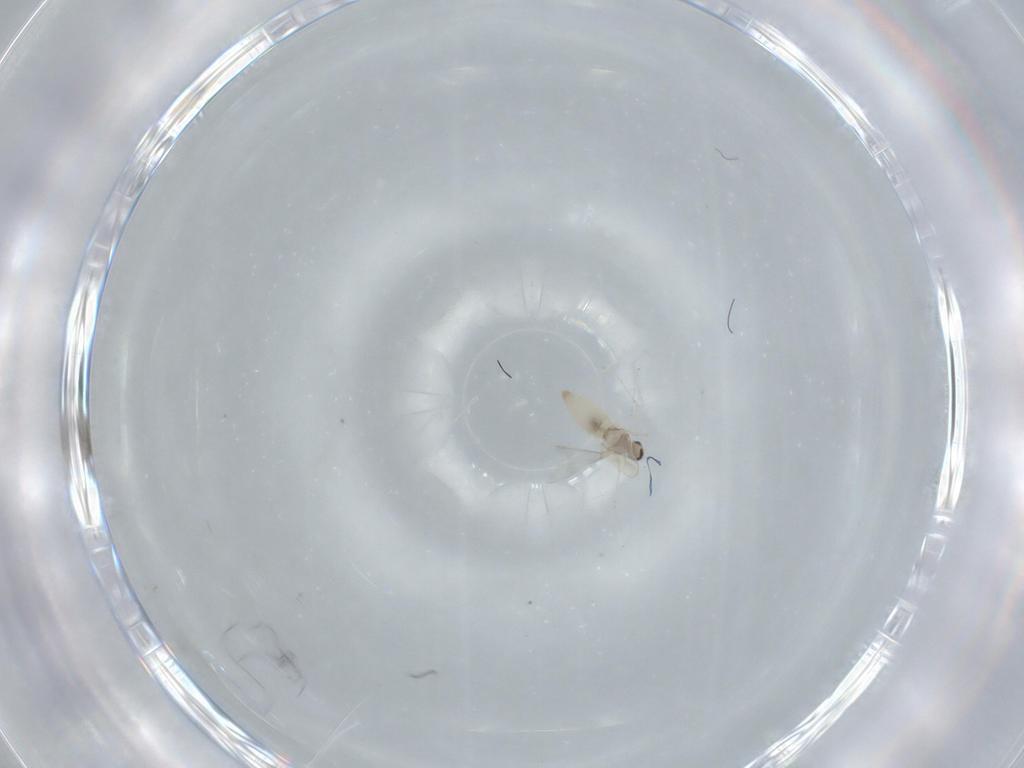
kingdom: Animalia
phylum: Arthropoda
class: Insecta
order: Diptera
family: Cecidomyiidae
